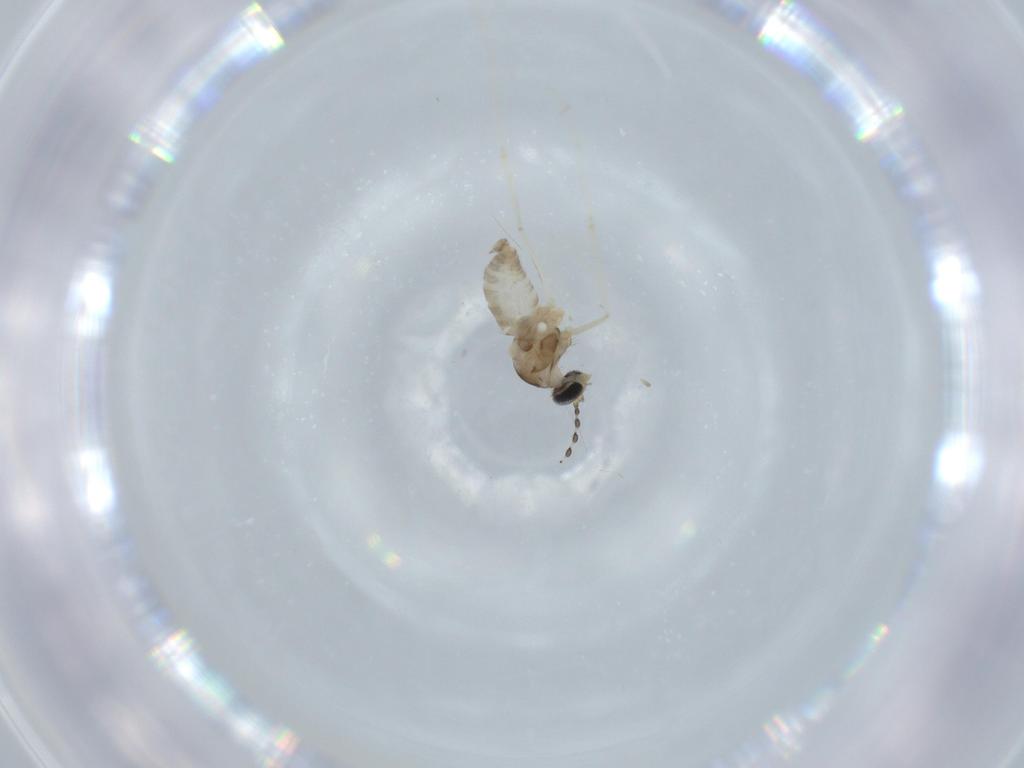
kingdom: Animalia
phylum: Arthropoda
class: Insecta
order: Diptera
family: Cecidomyiidae
